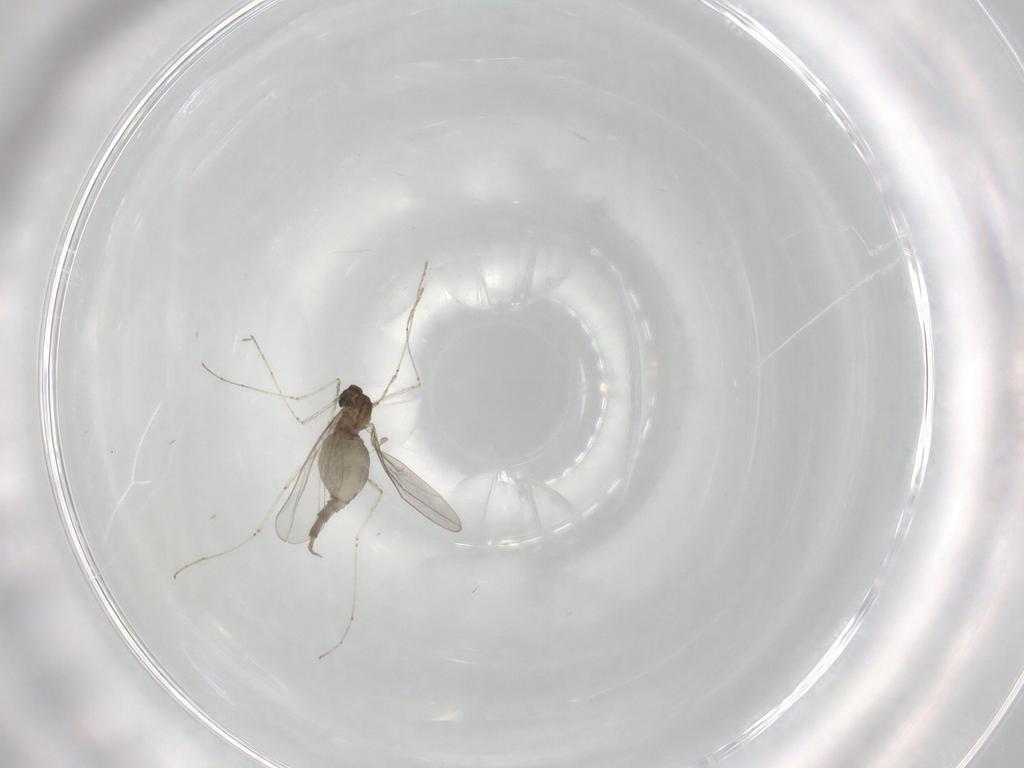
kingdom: Animalia
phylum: Arthropoda
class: Insecta
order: Diptera
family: Cecidomyiidae
